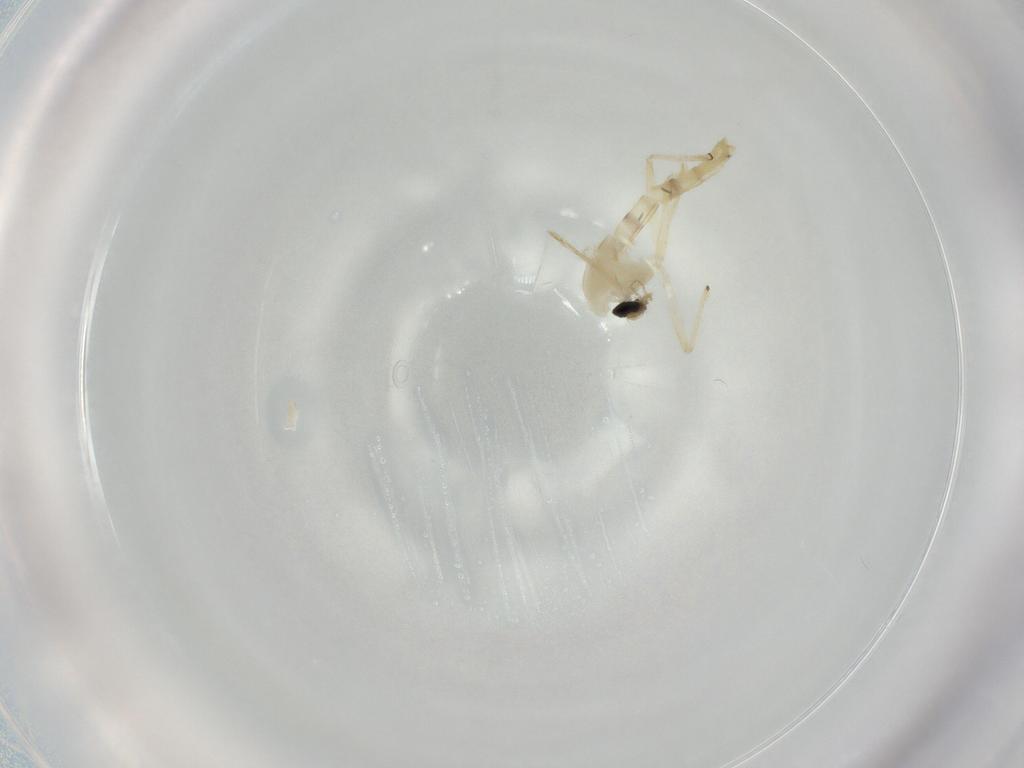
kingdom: Animalia
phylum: Arthropoda
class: Insecta
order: Diptera
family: Chironomidae
